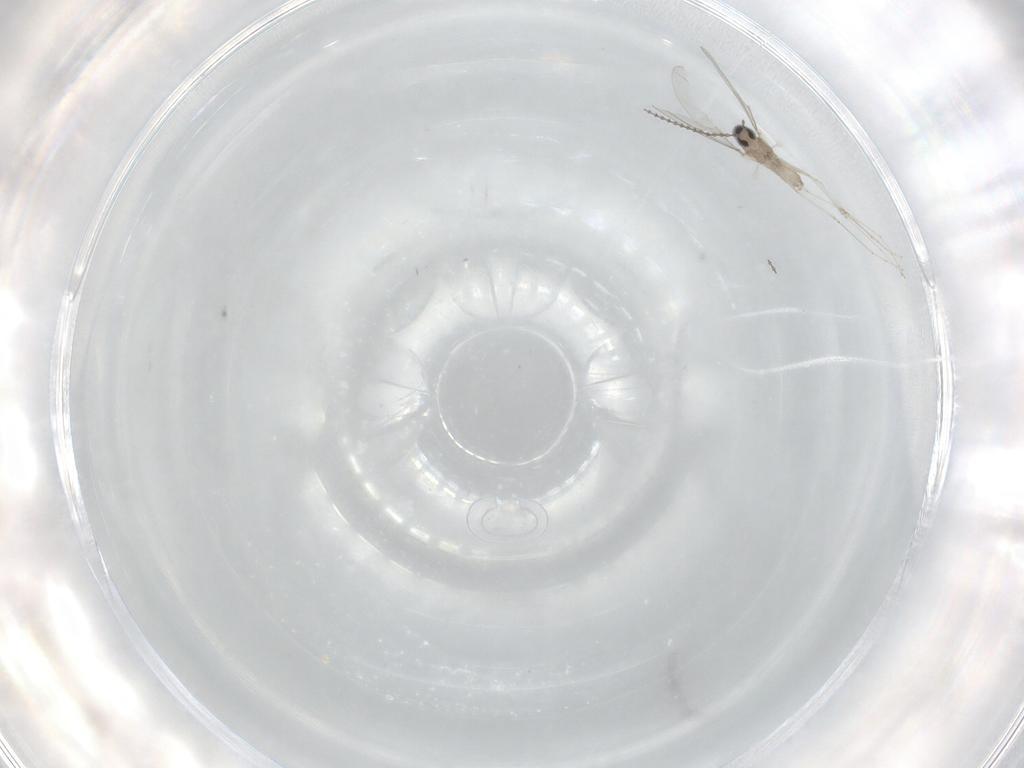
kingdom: Animalia
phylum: Arthropoda
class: Insecta
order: Diptera
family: Cecidomyiidae
